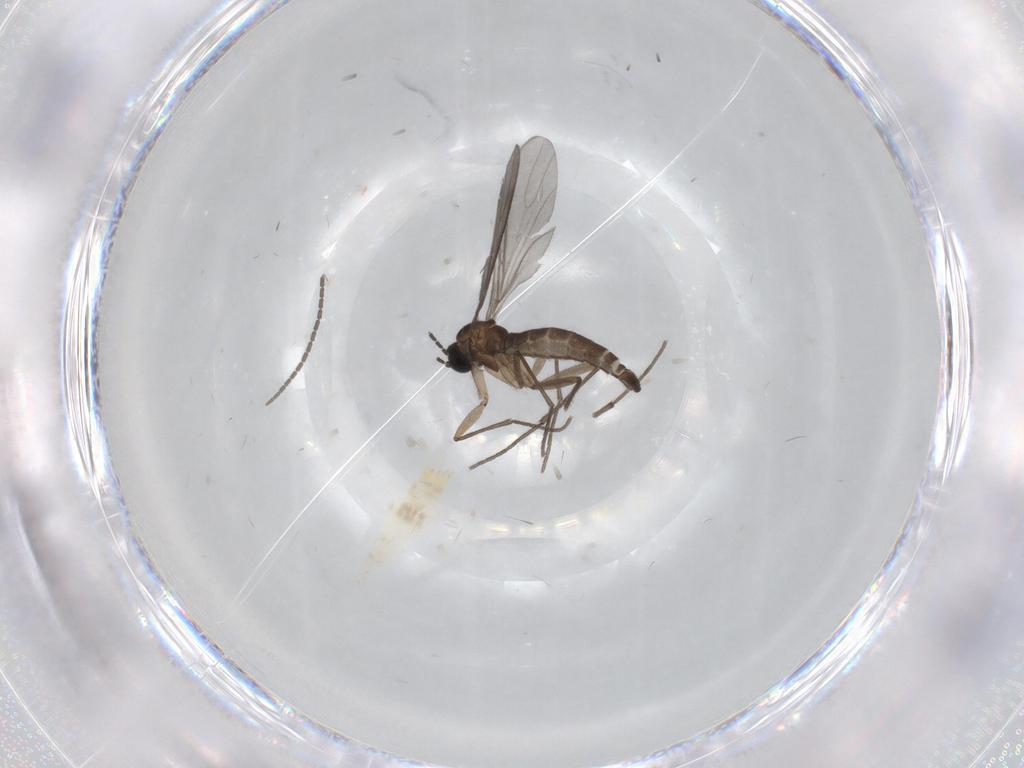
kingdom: Animalia
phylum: Arthropoda
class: Insecta
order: Diptera
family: Sciaridae
